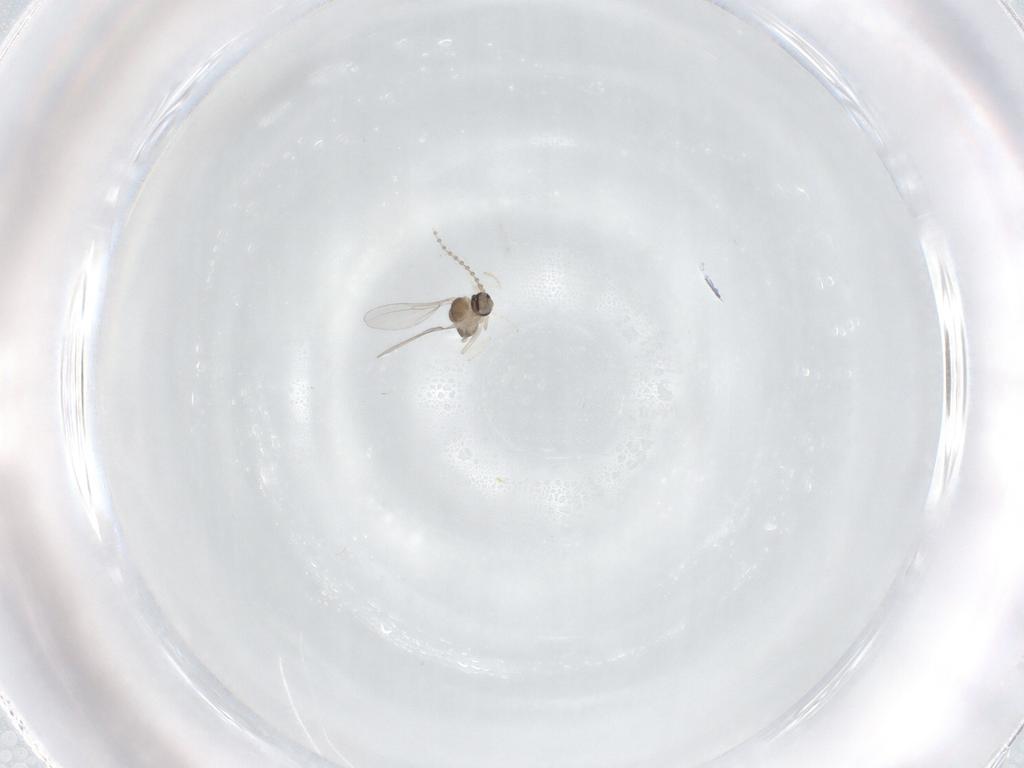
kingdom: Animalia
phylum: Arthropoda
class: Insecta
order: Diptera
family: Cecidomyiidae
